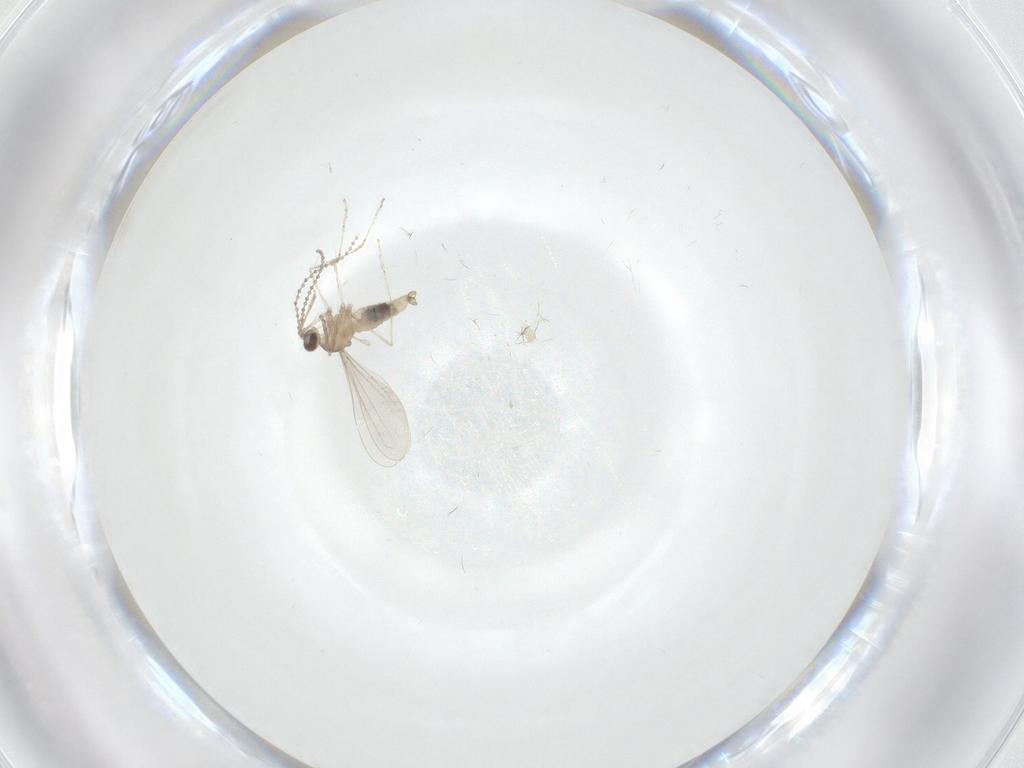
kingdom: Animalia
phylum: Arthropoda
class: Insecta
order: Diptera
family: Cecidomyiidae
